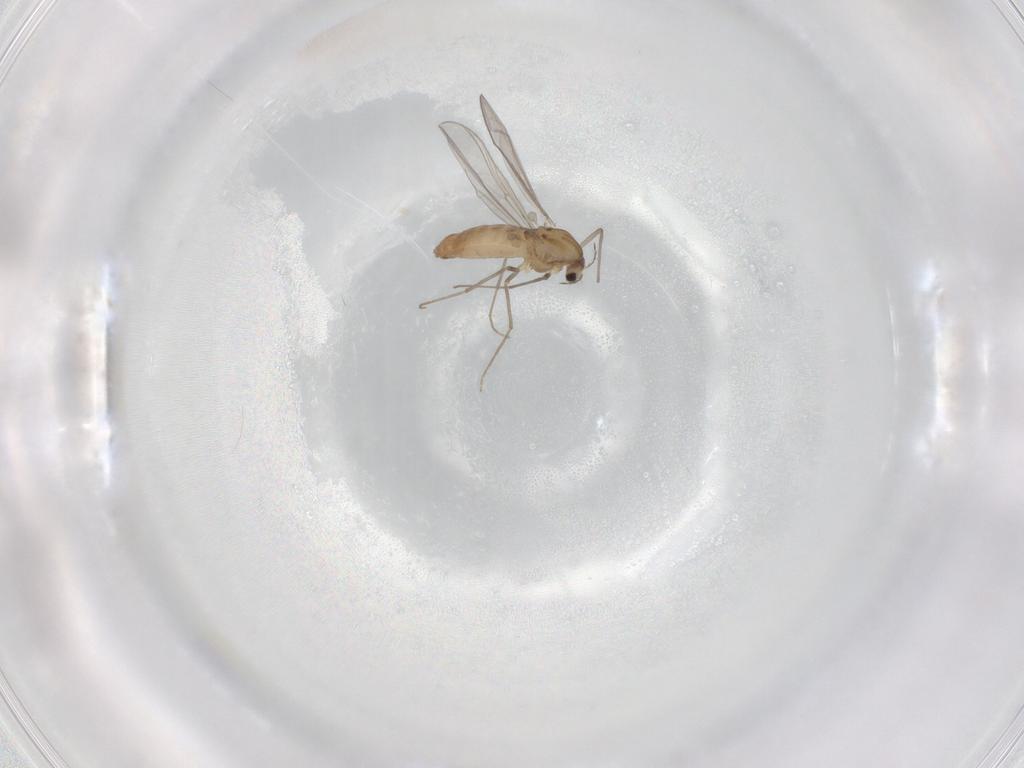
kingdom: Animalia
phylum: Arthropoda
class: Insecta
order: Diptera
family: Chironomidae
